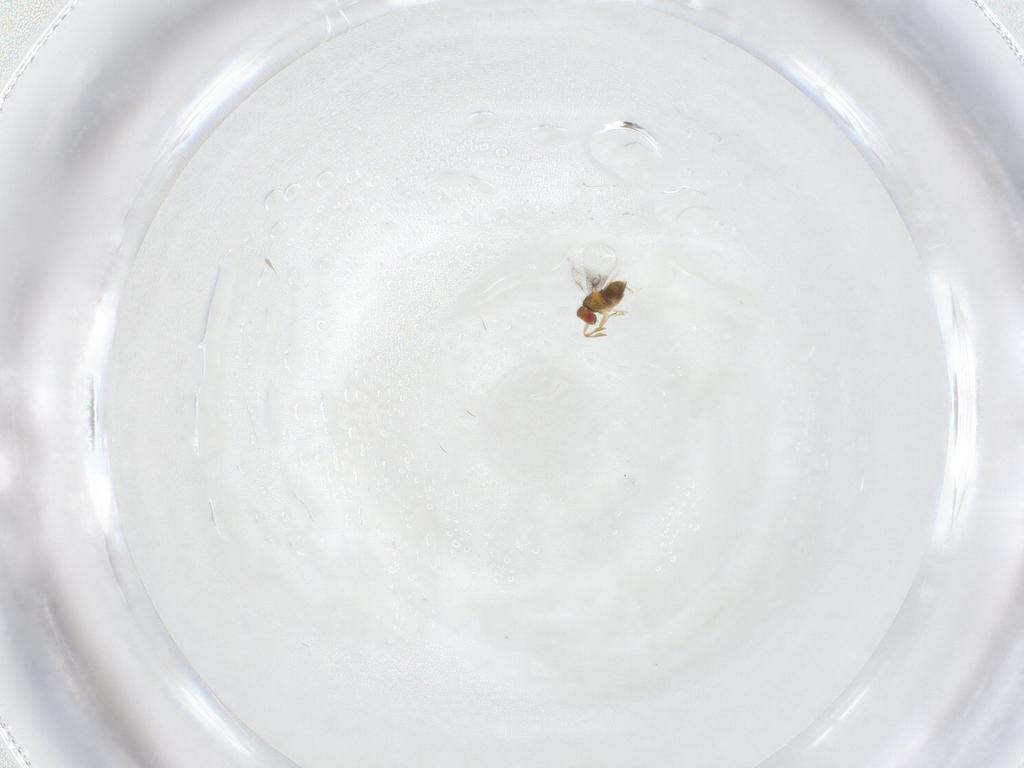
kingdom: Animalia
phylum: Arthropoda
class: Insecta
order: Hymenoptera
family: Trichogrammatidae
